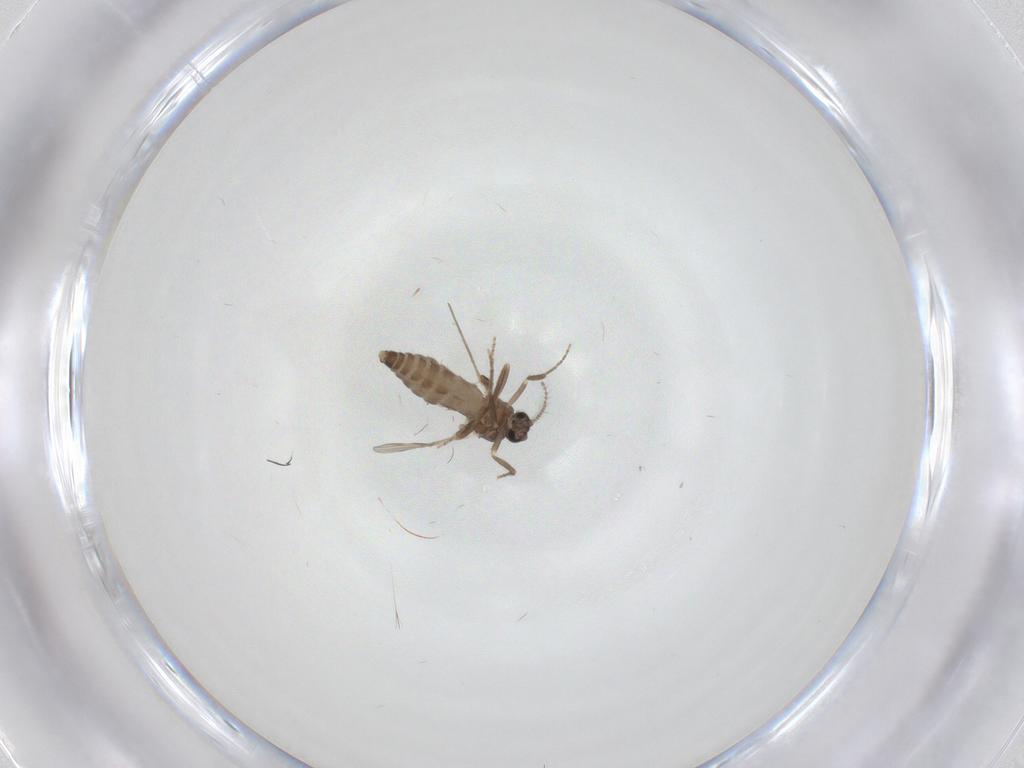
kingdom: Animalia
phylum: Arthropoda
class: Insecta
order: Diptera
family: Ceratopogonidae
